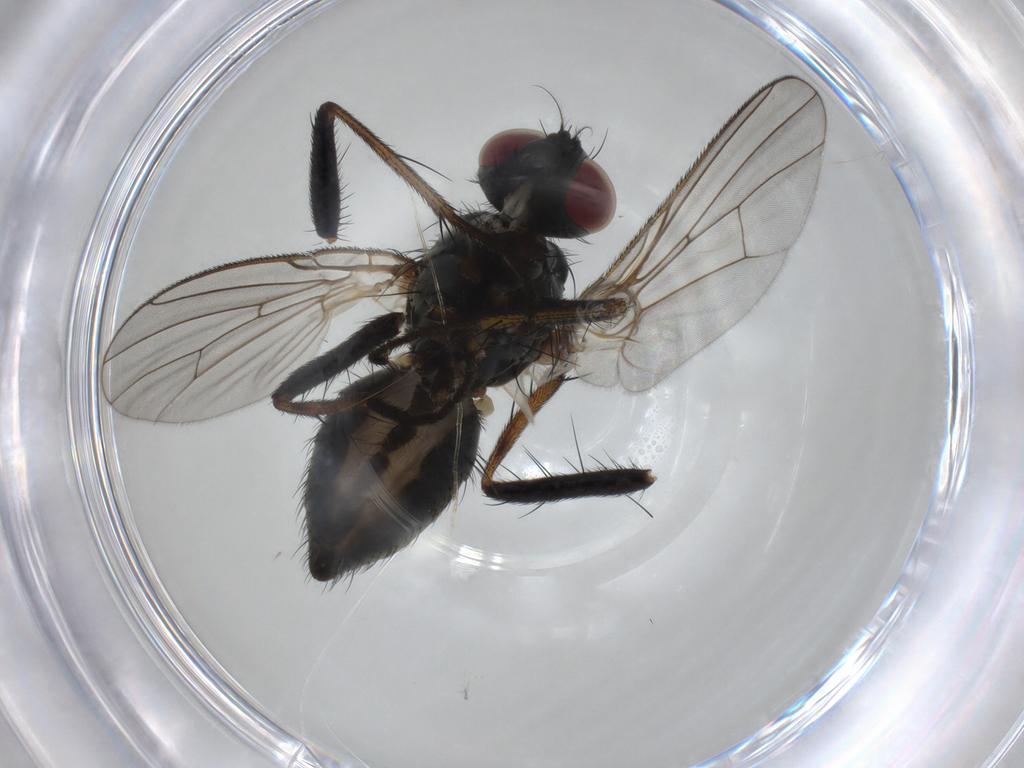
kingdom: Animalia
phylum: Arthropoda
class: Insecta
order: Diptera
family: Muscidae
